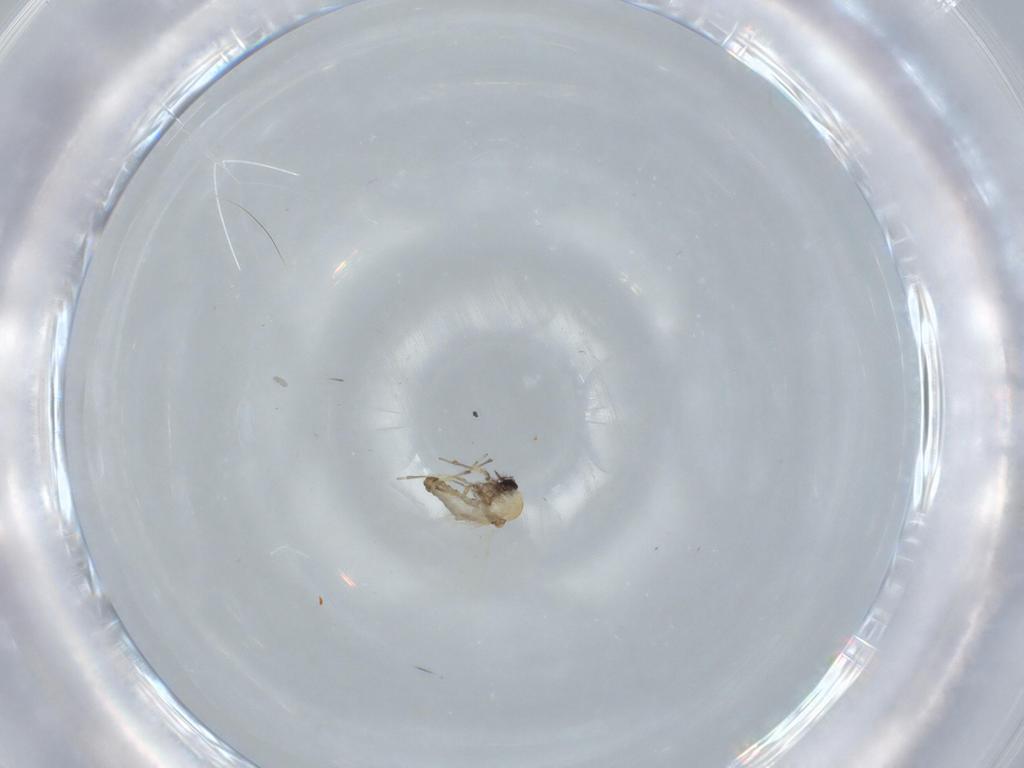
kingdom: Animalia
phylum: Arthropoda
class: Insecta
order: Diptera
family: Ceratopogonidae
